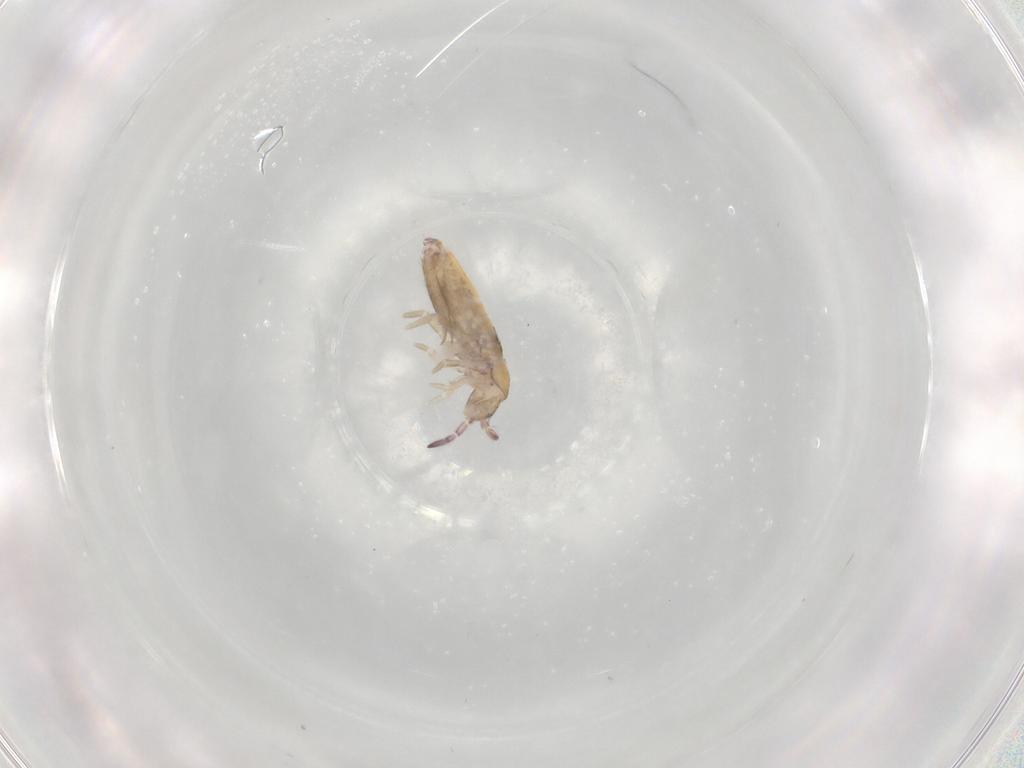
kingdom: Animalia
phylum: Arthropoda
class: Collembola
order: Entomobryomorpha
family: Entomobryidae
